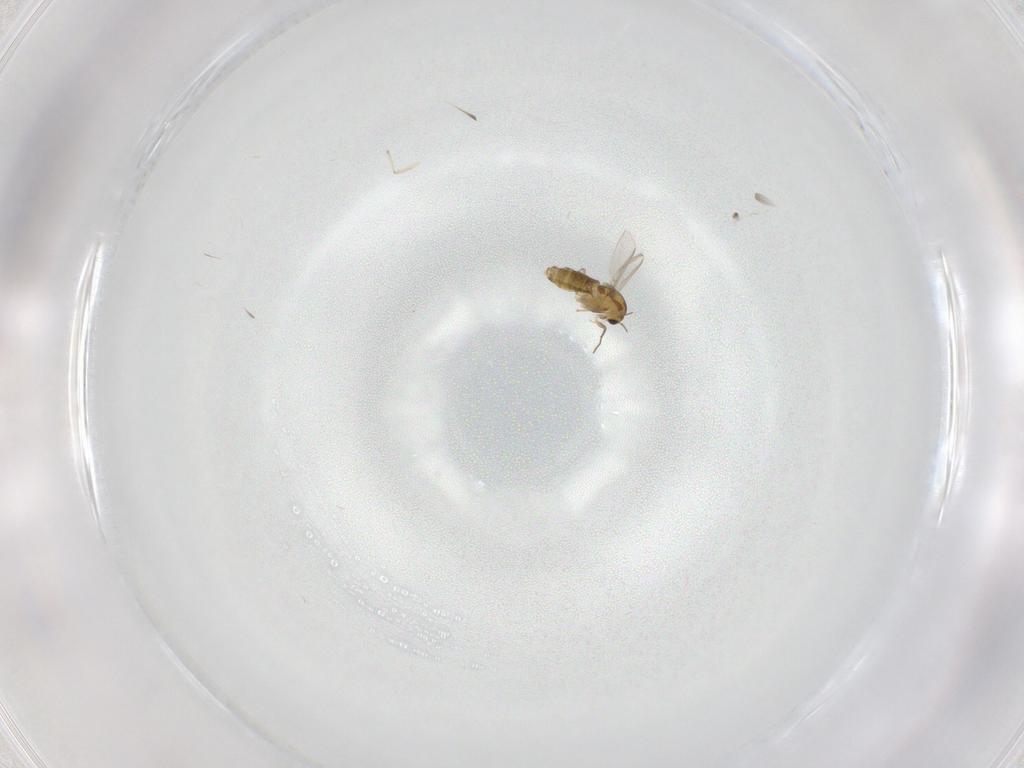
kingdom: Animalia
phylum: Arthropoda
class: Insecta
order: Diptera
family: Chironomidae
